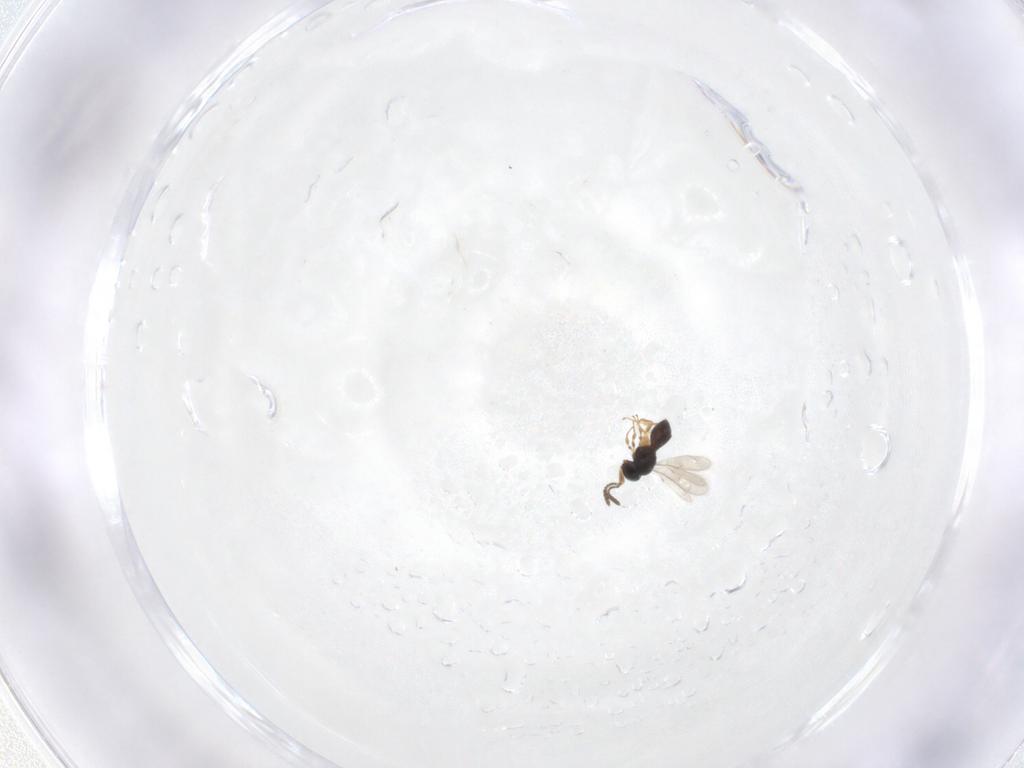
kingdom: Animalia
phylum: Arthropoda
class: Insecta
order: Hymenoptera
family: Scelionidae
